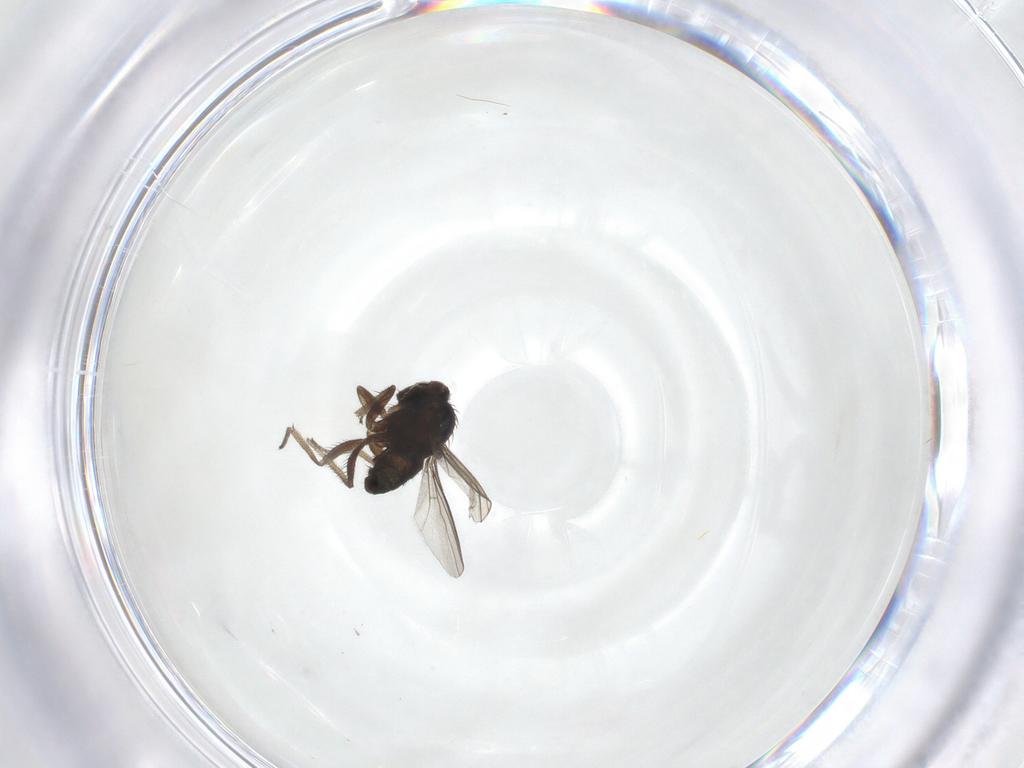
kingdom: Animalia
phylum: Arthropoda
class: Insecta
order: Diptera
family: Dolichopodidae
